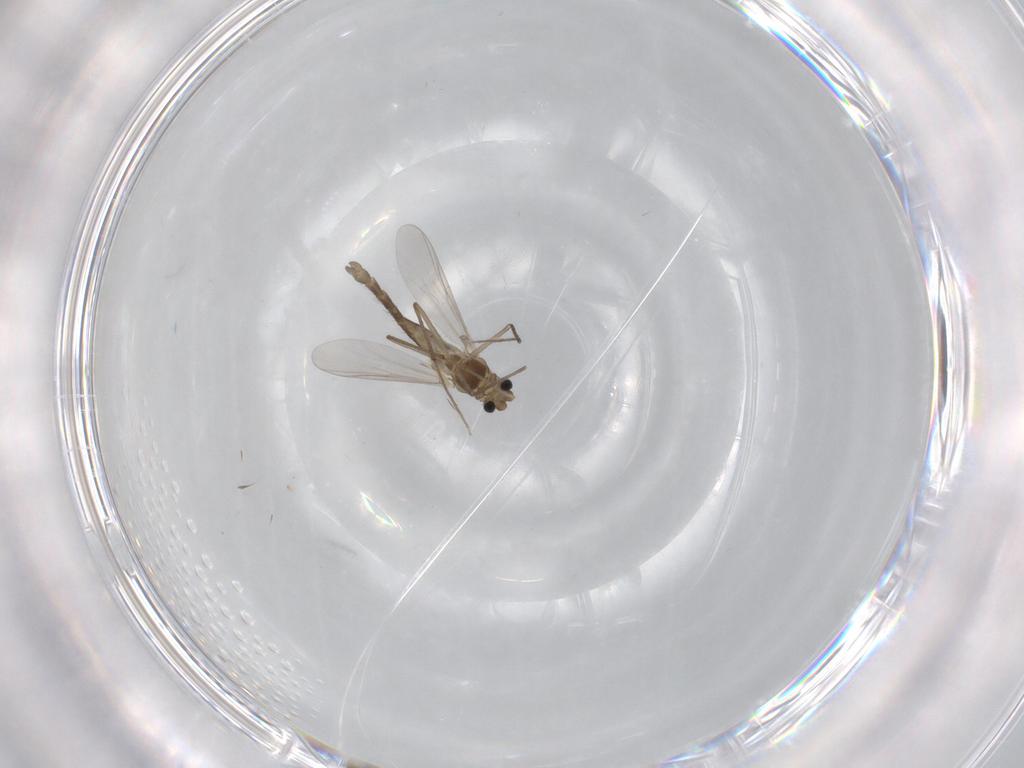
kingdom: Animalia
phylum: Arthropoda
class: Insecta
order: Diptera
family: Chironomidae
